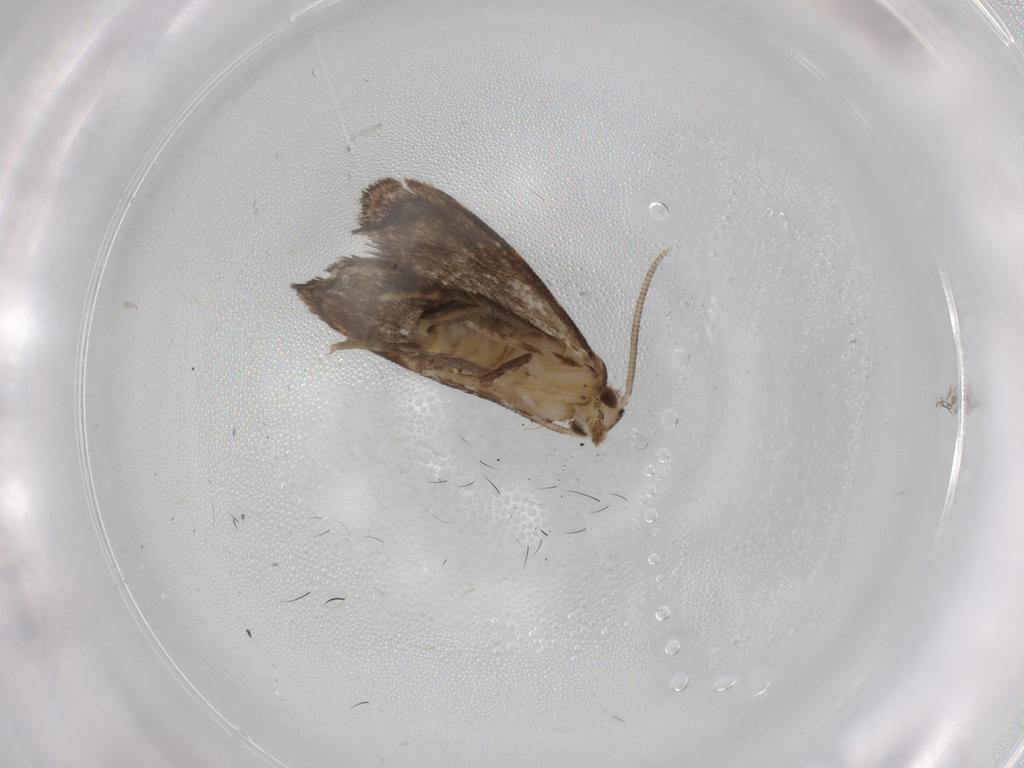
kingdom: Animalia
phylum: Arthropoda
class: Insecta
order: Lepidoptera
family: Dryadaulidae
